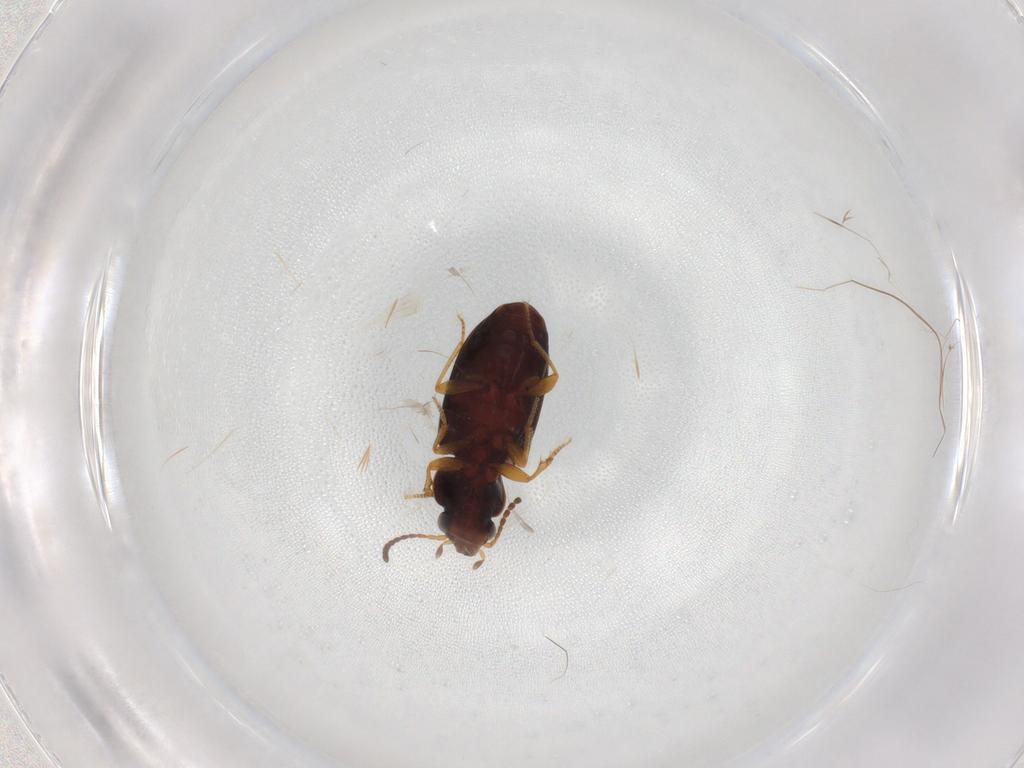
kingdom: Animalia
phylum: Arthropoda
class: Insecta
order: Coleoptera
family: Carabidae
